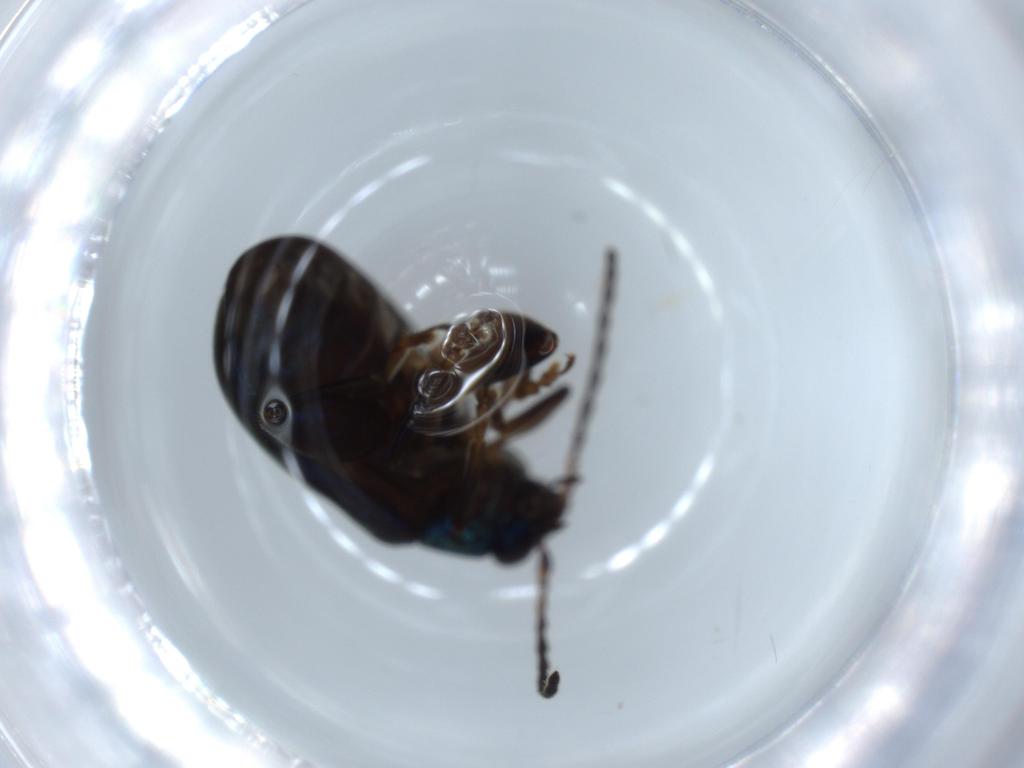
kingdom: Animalia
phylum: Arthropoda
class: Insecta
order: Coleoptera
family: Chrysomelidae
